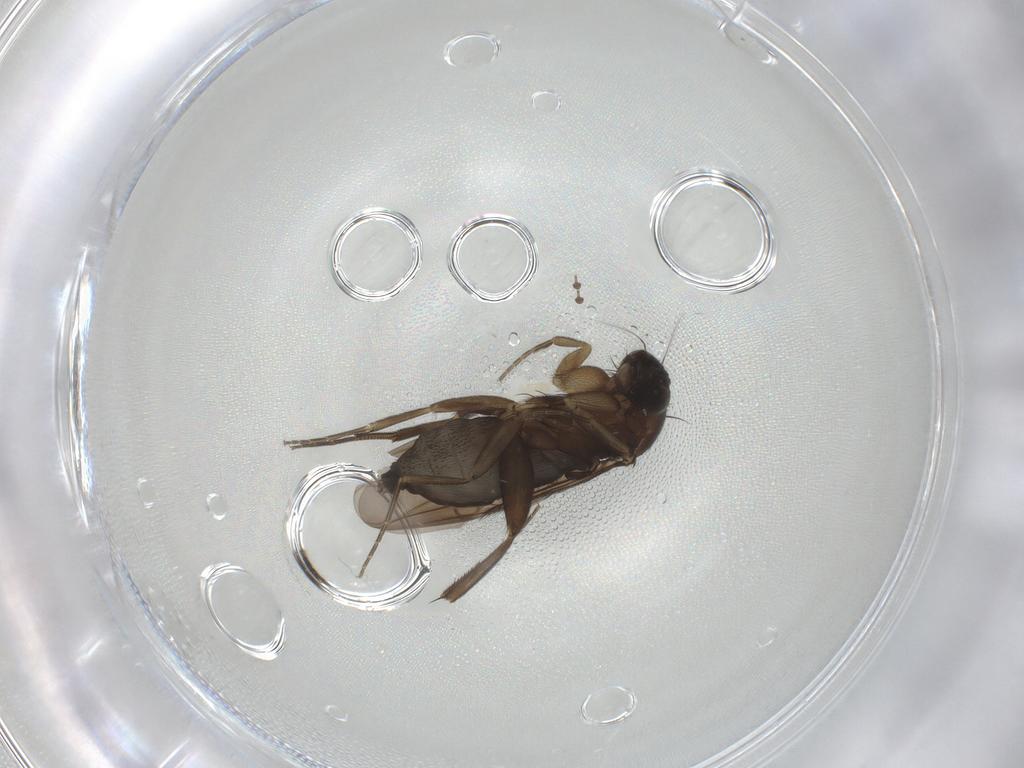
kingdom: Animalia
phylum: Arthropoda
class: Insecta
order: Diptera
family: Phoridae
